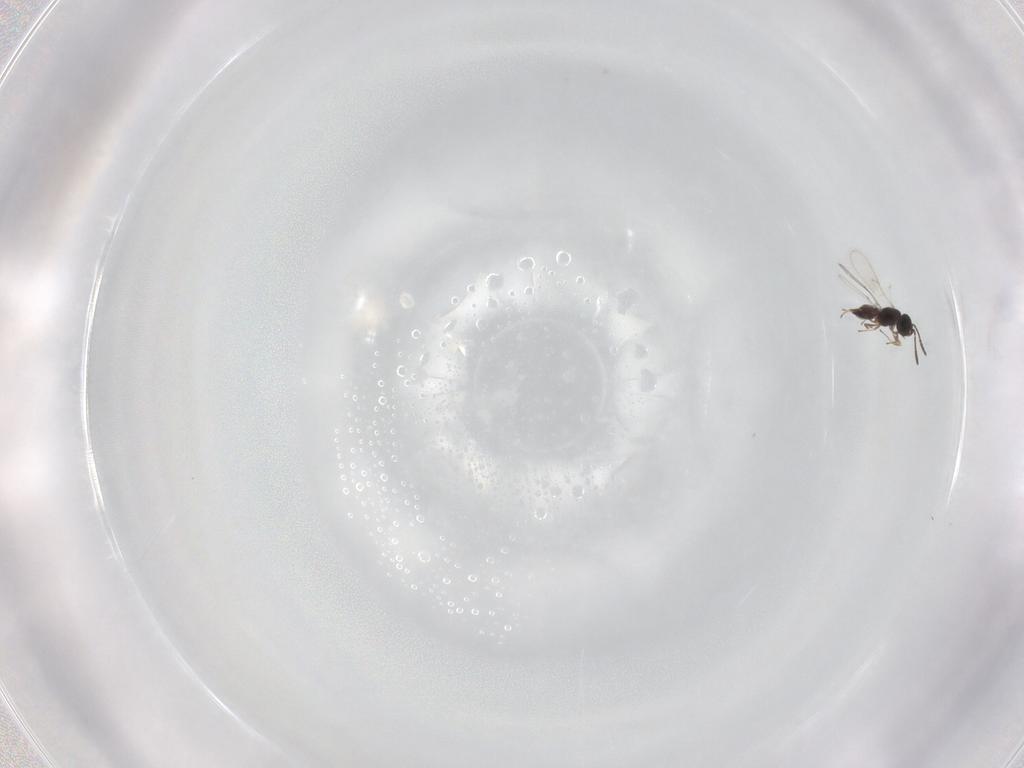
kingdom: Animalia
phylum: Arthropoda
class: Insecta
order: Hymenoptera
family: Scelionidae
